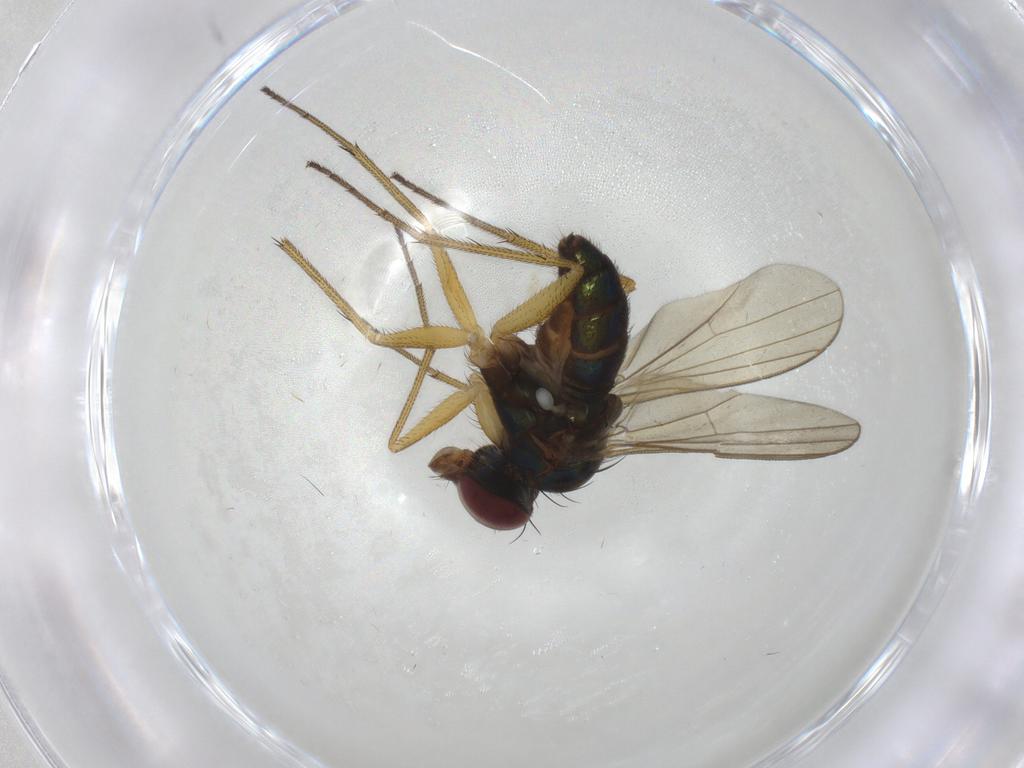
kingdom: Animalia
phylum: Arthropoda
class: Insecta
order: Diptera
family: Dolichopodidae
